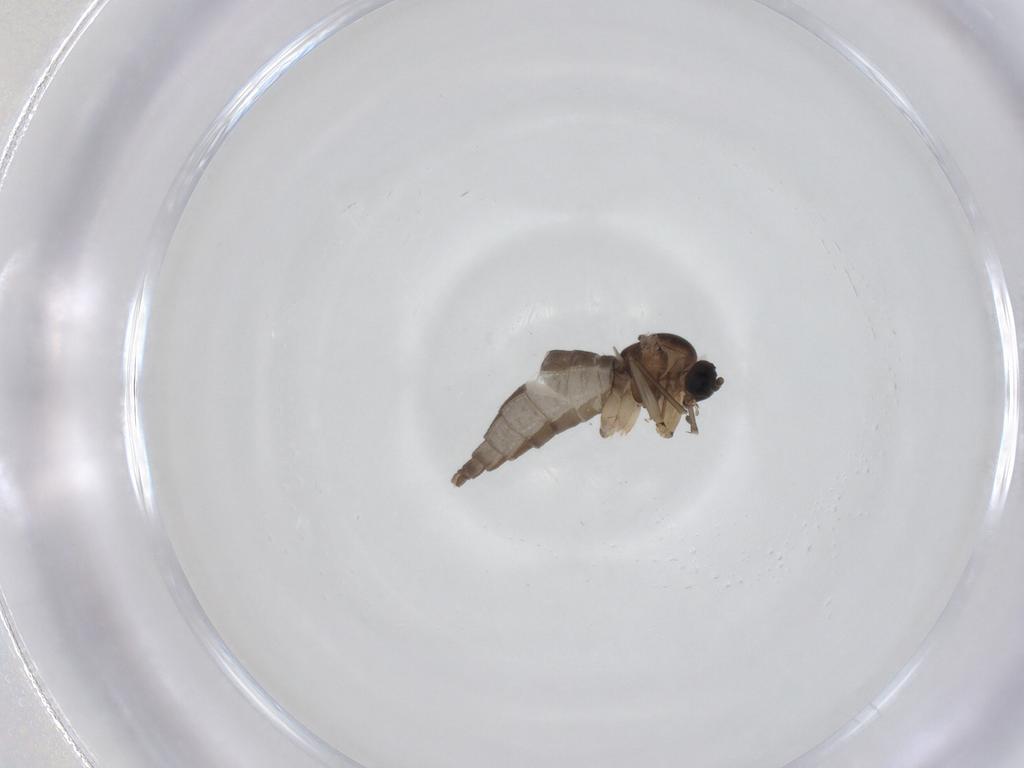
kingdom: Animalia
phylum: Arthropoda
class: Insecta
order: Diptera
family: Sciaridae
